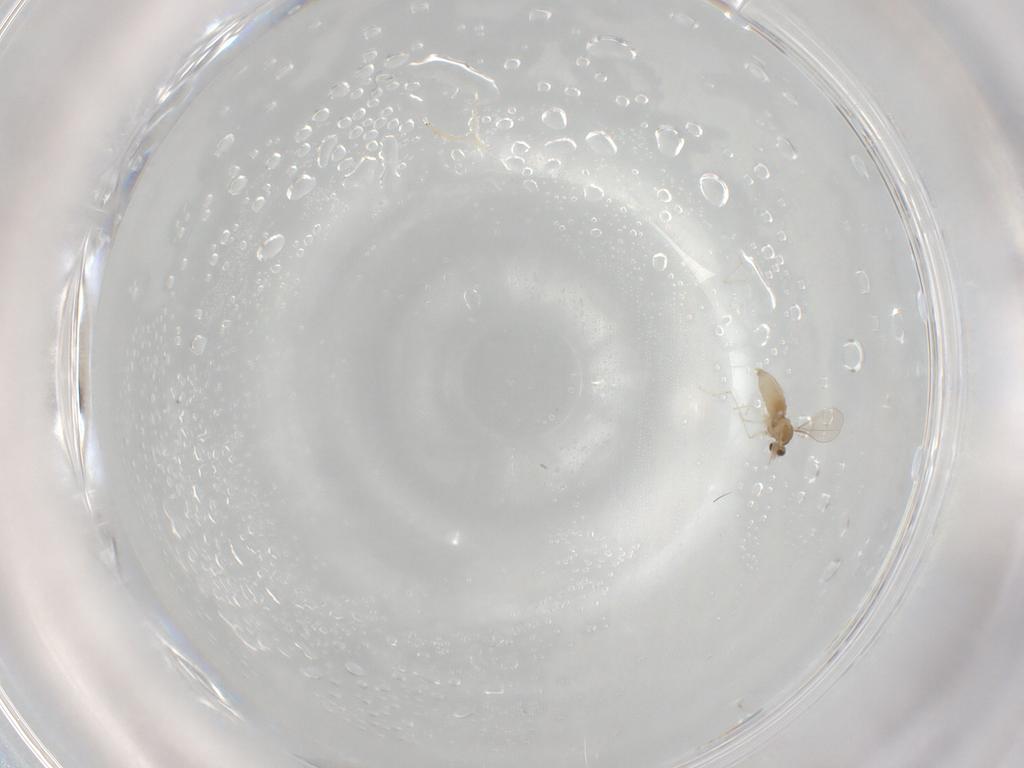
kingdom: Animalia
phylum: Arthropoda
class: Insecta
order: Diptera
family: Cecidomyiidae
